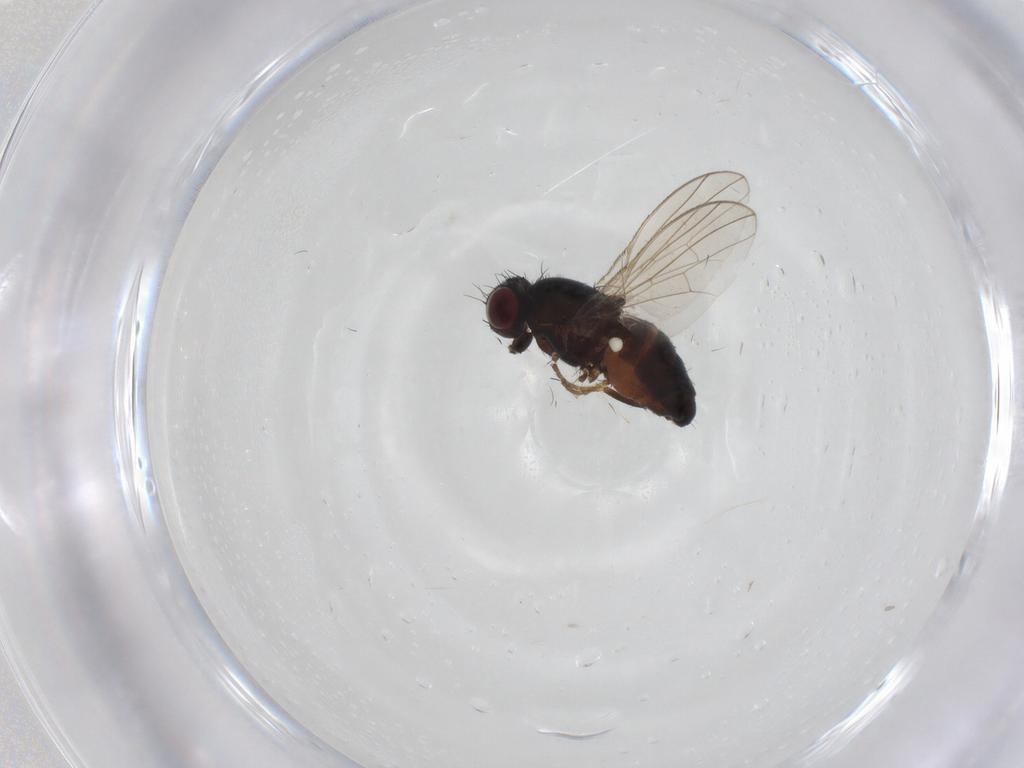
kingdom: Animalia
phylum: Arthropoda
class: Insecta
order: Diptera
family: Carnidae
